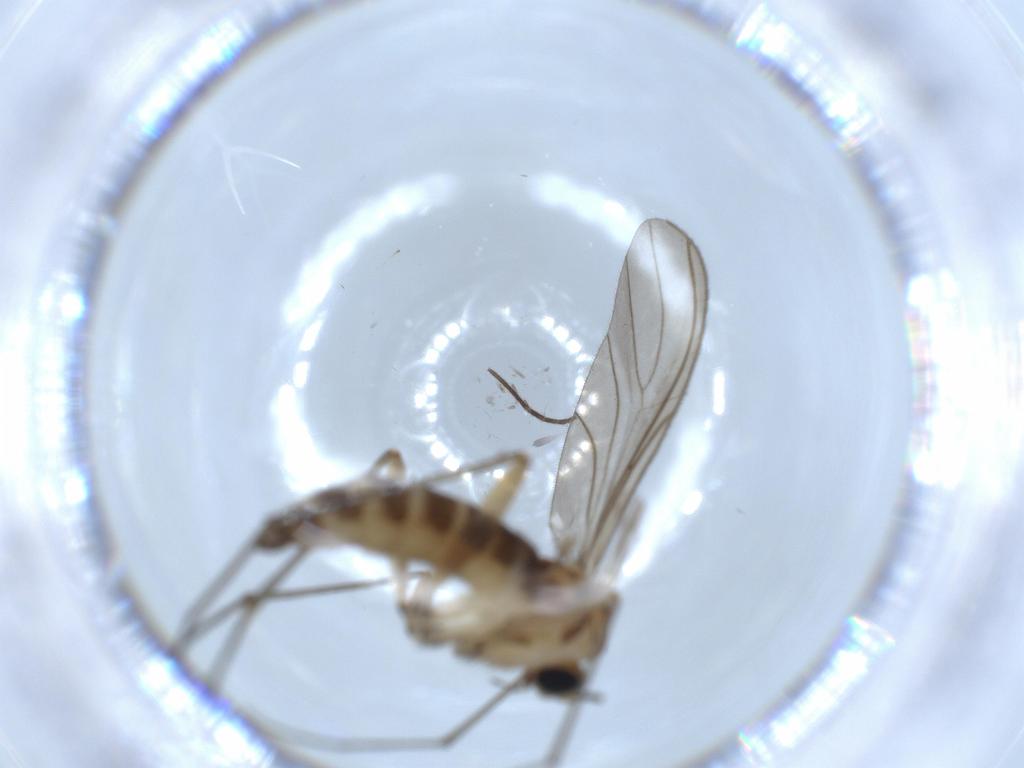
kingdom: Animalia
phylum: Arthropoda
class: Insecta
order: Diptera
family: Sciaridae
